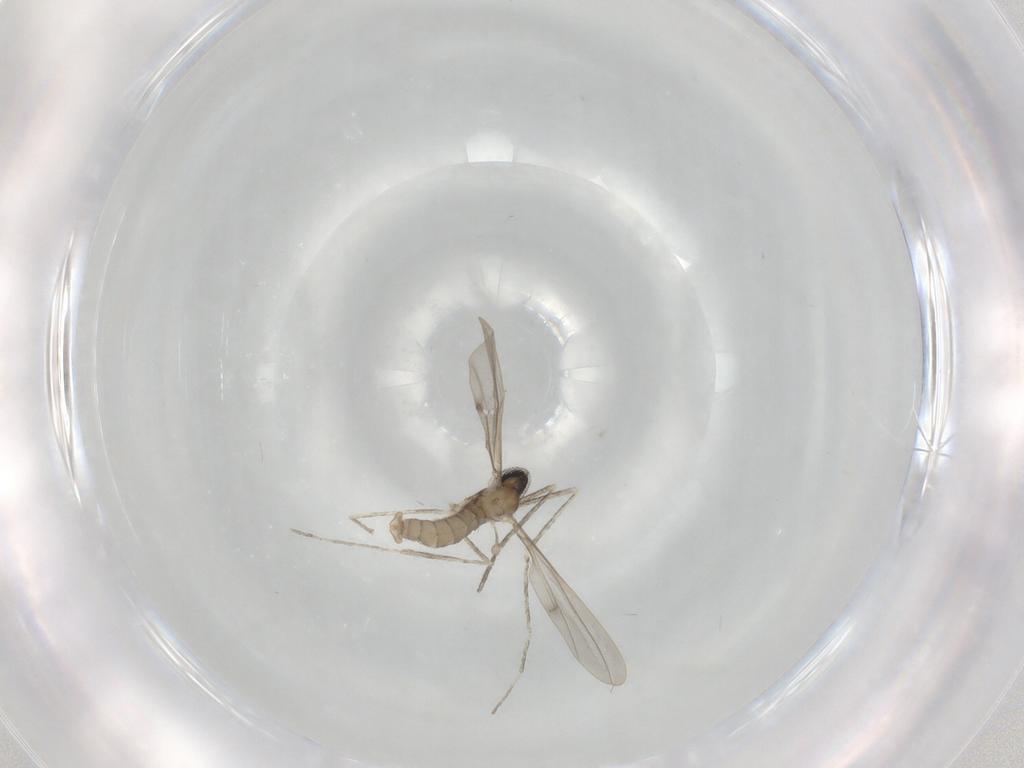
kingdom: Animalia
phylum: Arthropoda
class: Insecta
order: Diptera
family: Cecidomyiidae
